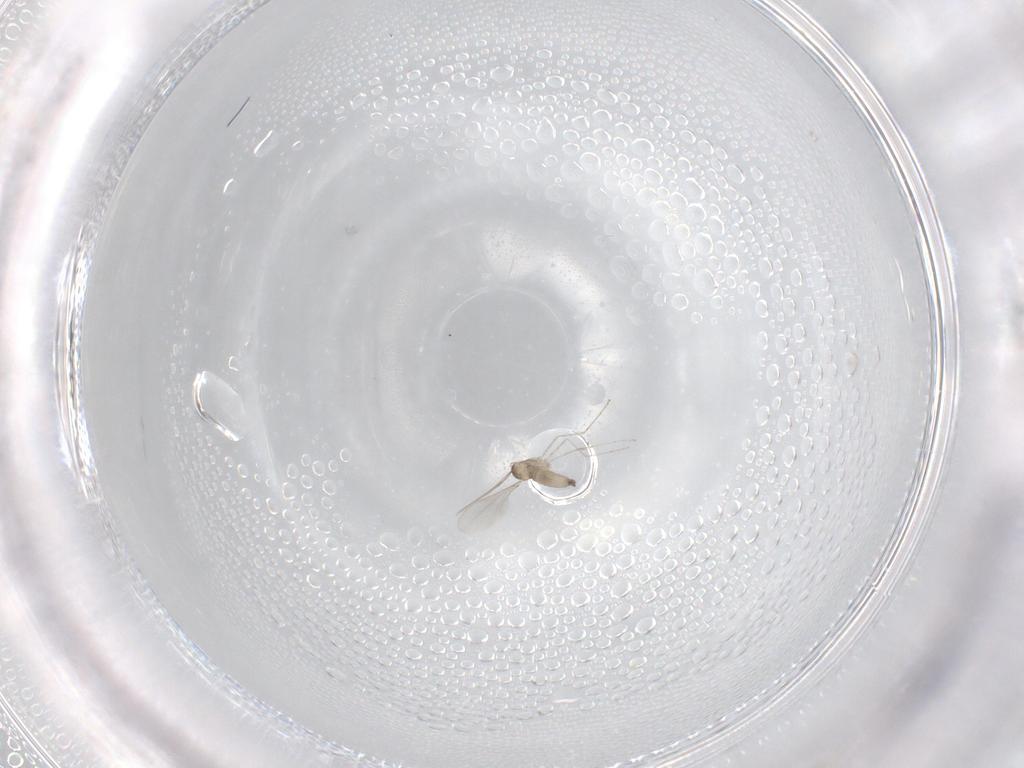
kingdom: Animalia
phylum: Arthropoda
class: Insecta
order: Diptera
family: Cecidomyiidae
